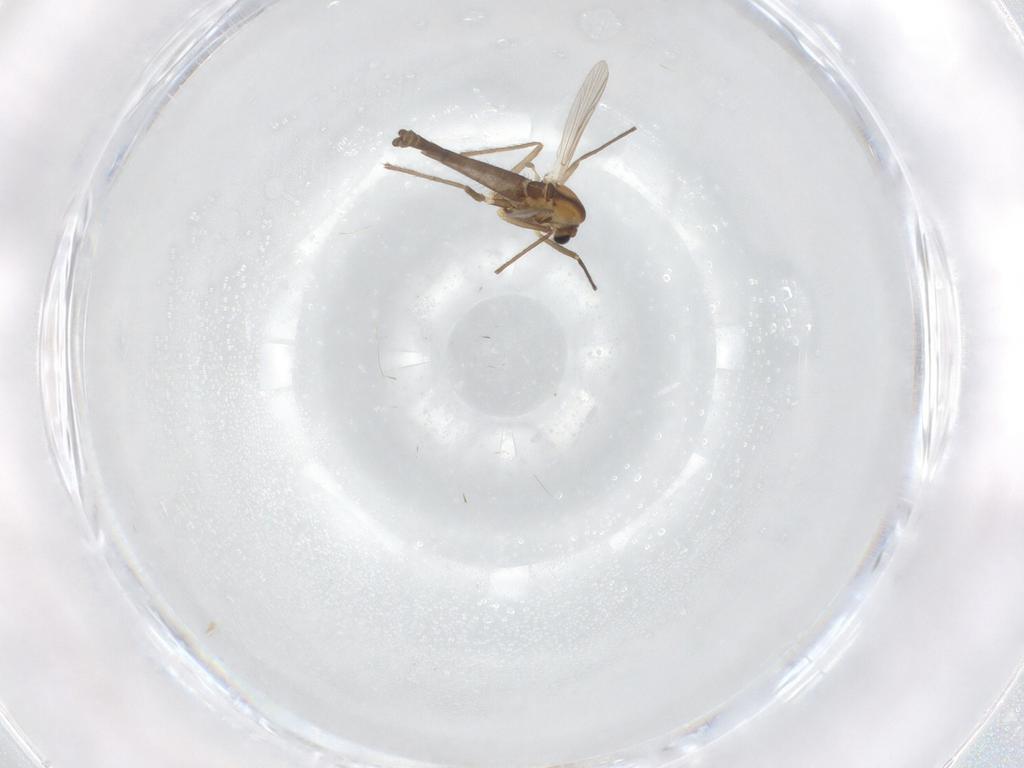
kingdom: Animalia
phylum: Arthropoda
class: Insecta
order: Diptera
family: Chironomidae
